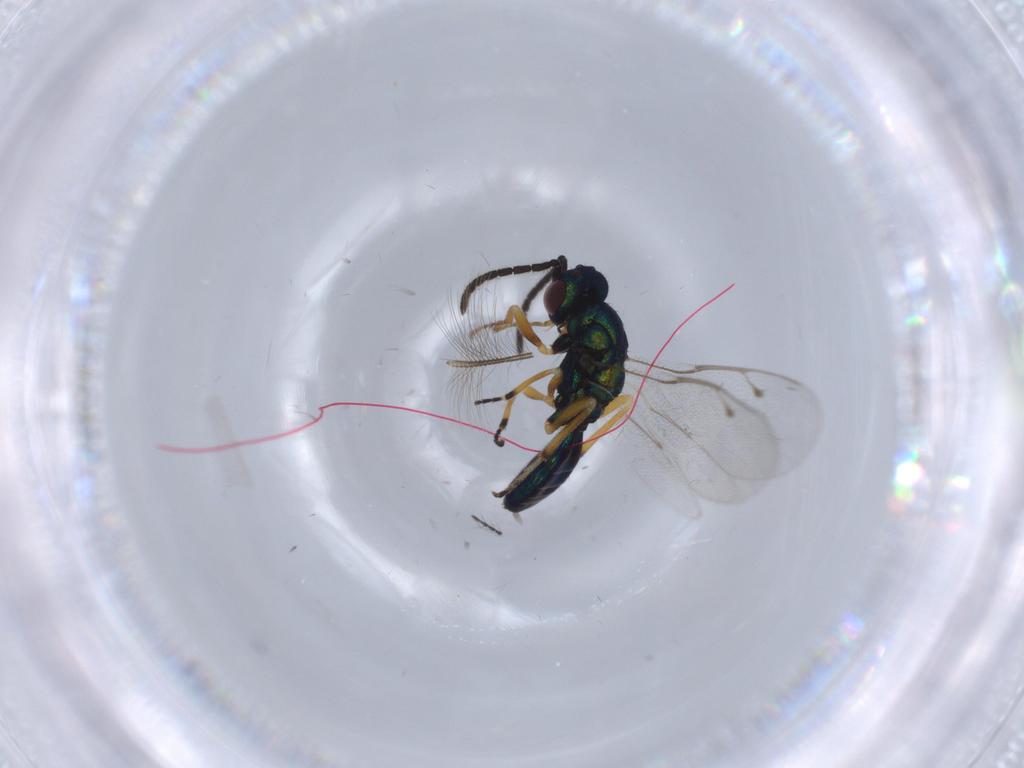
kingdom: Animalia
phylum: Arthropoda
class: Insecta
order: Hymenoptera
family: Pteromalidae
